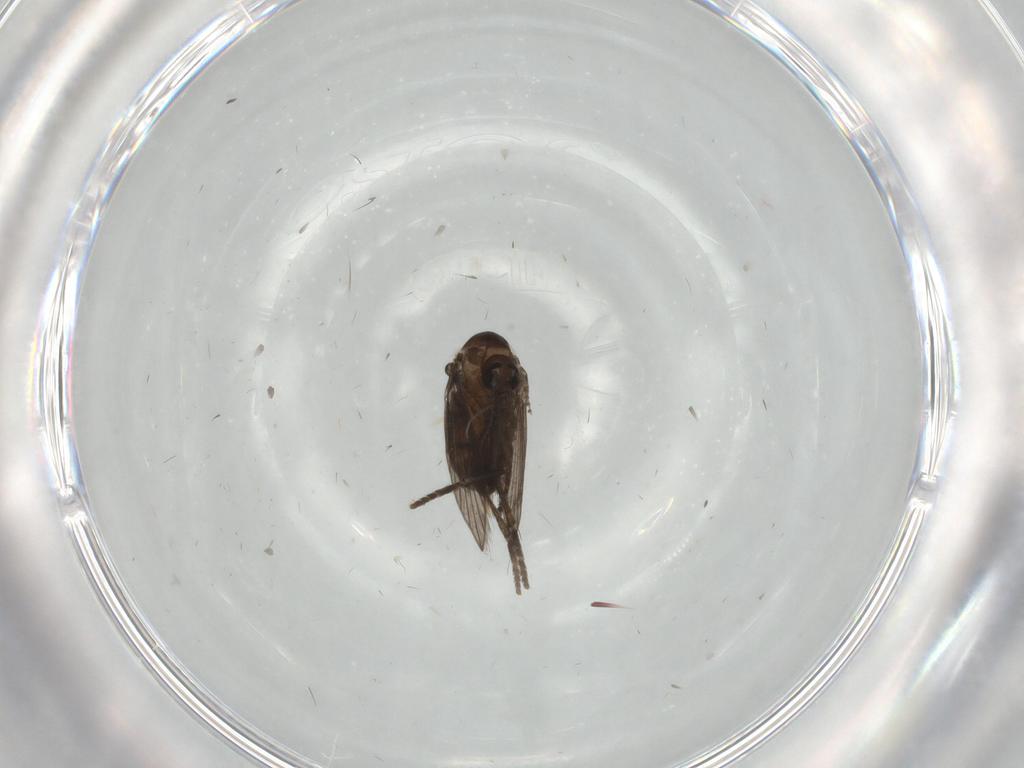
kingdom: Animalia
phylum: Arthropoda
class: Insecta
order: Diptera
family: Psychodidae
